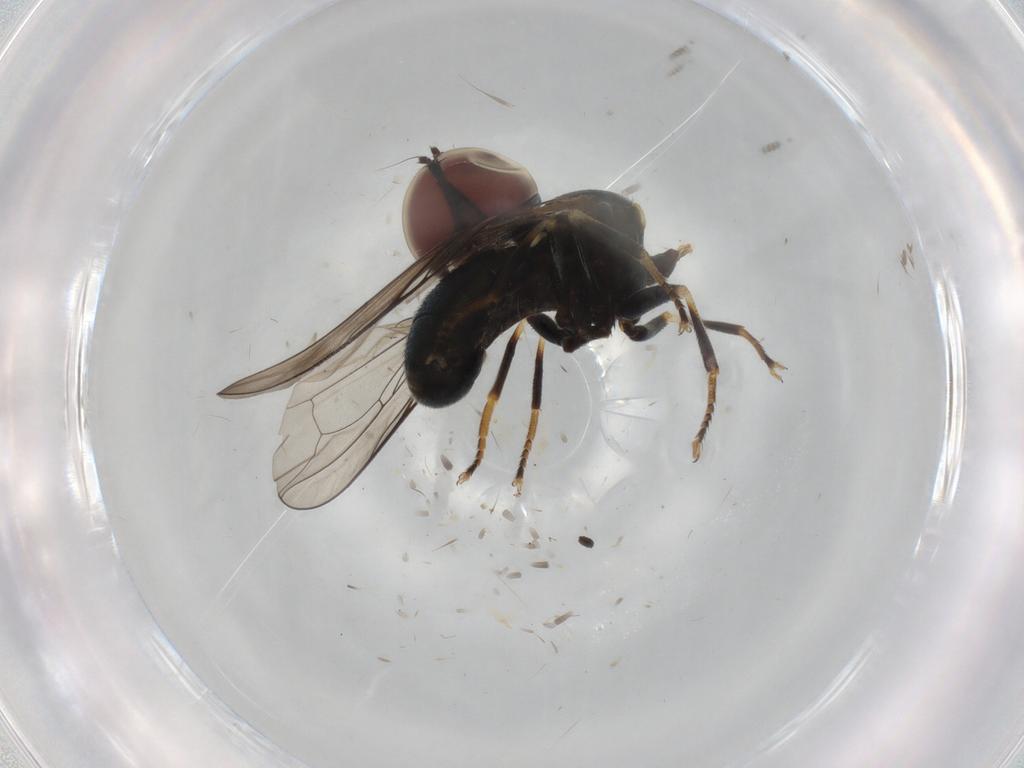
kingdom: Animalia
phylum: Arthropoda
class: Insecta
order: Diptera
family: Pipunculidae
